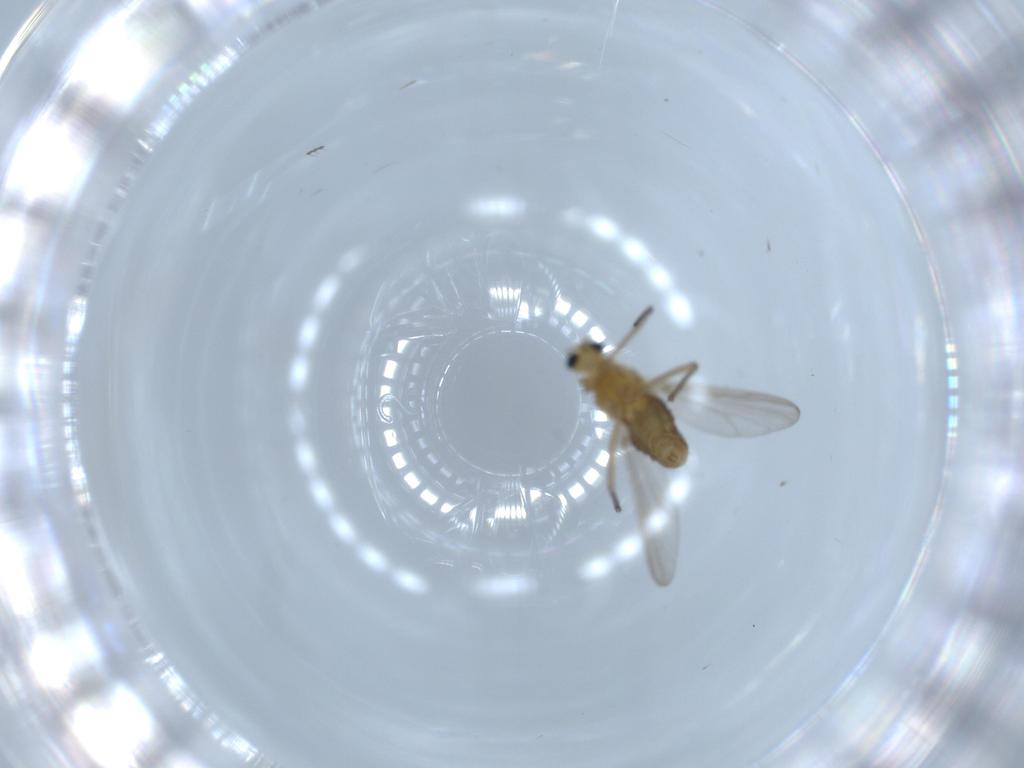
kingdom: Animalia
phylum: Arthropoda
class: Insecta
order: Diptera
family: Chironomidae
